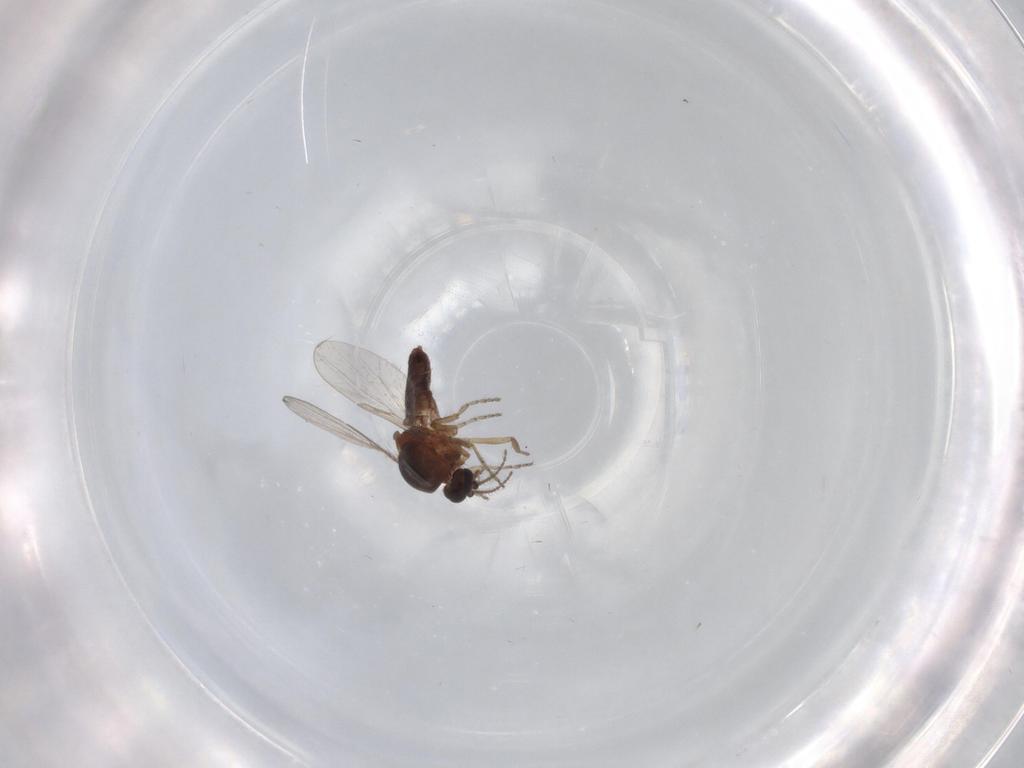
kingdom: Animalia
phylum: Arthropoda
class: Insecta
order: Diptera
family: Ceratopogonidae
